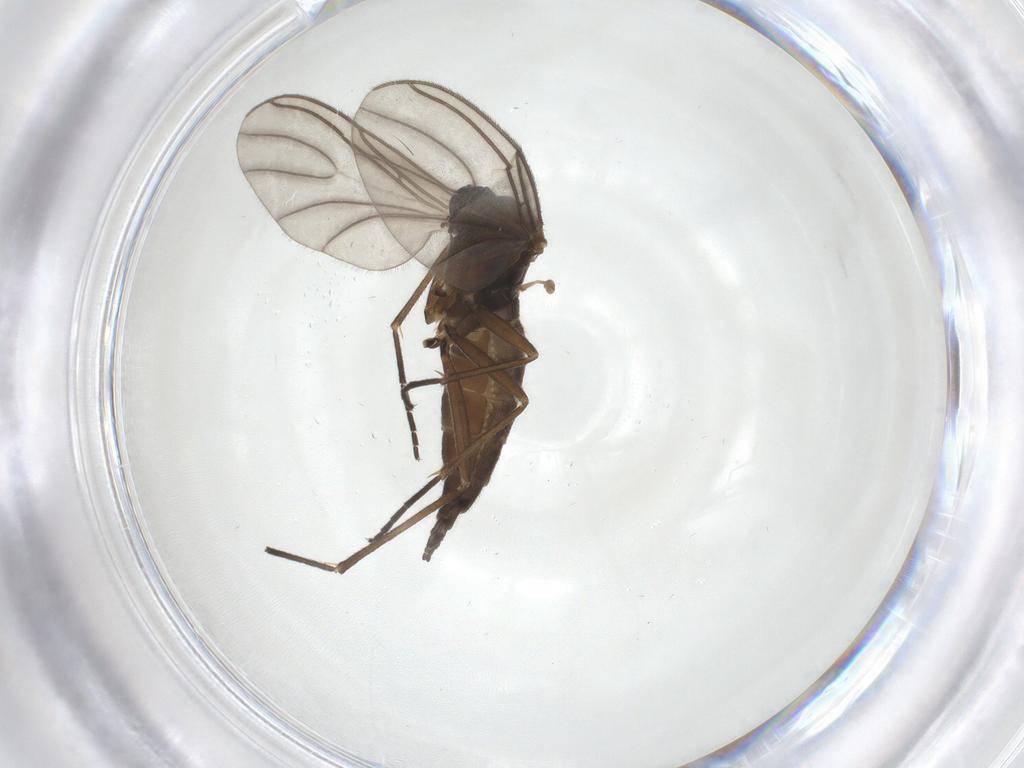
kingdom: Animalia
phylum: Arthropoda
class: Insecta
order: Diptera
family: Sciaridae
